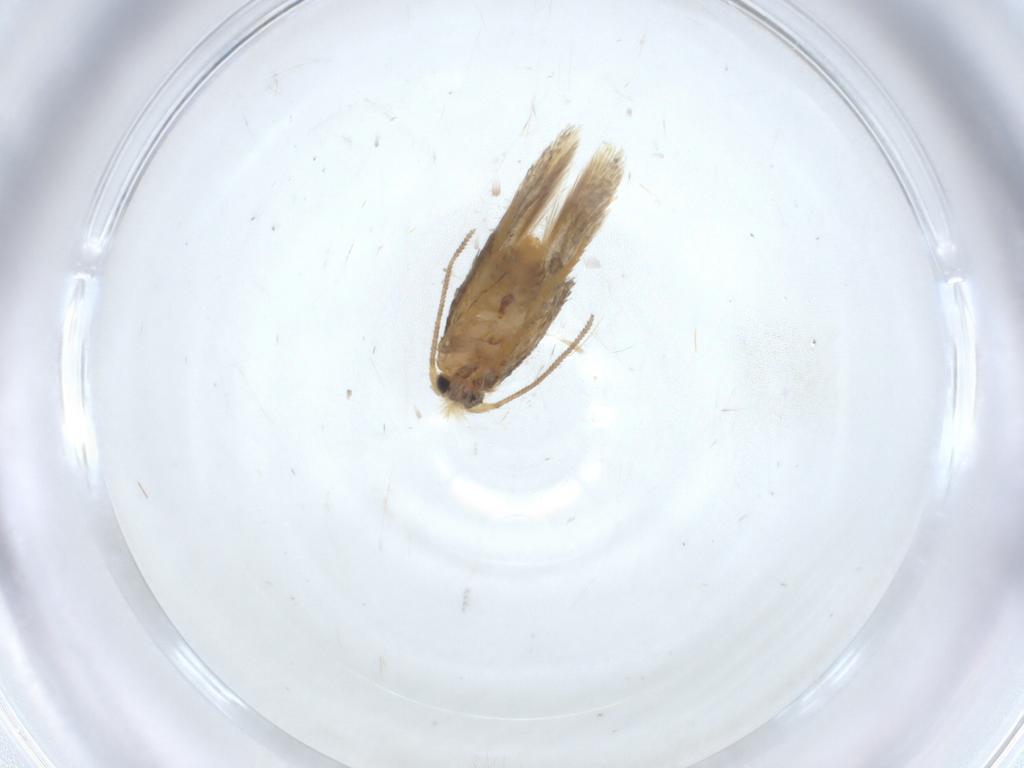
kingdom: Animalia
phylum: Arthropoda
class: Insecta
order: Lepidoptera
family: Nepticulidae
